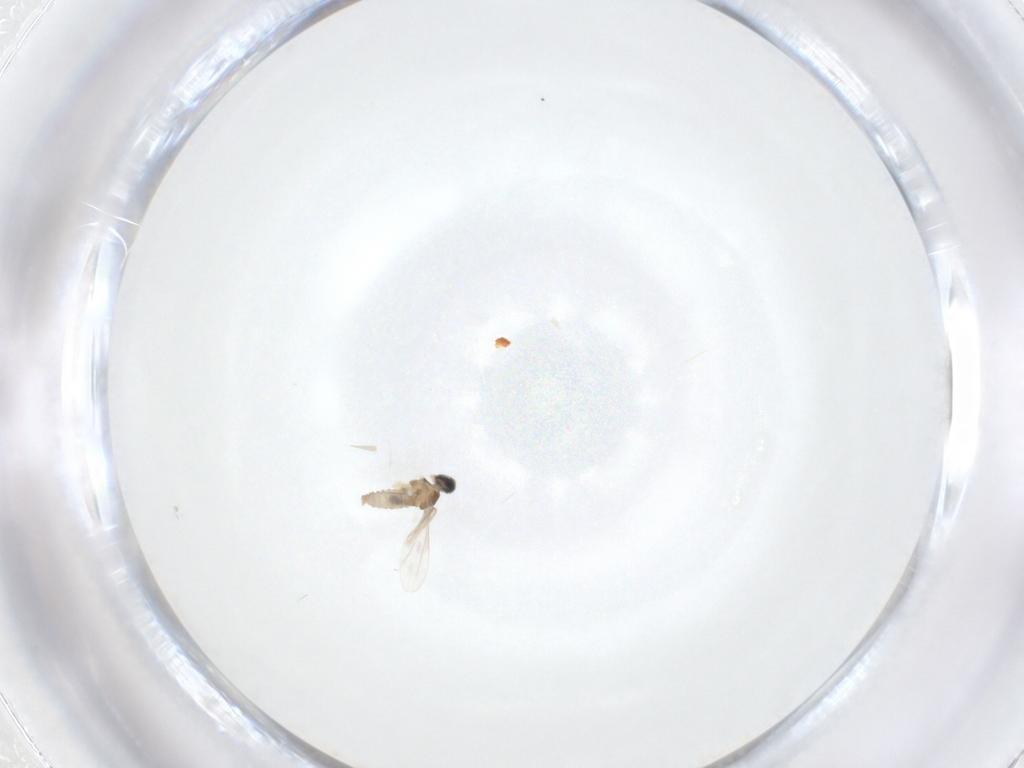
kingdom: Animalia
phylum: Arthropoda
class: Insecta
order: Diptera
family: Cecidomyiidae
